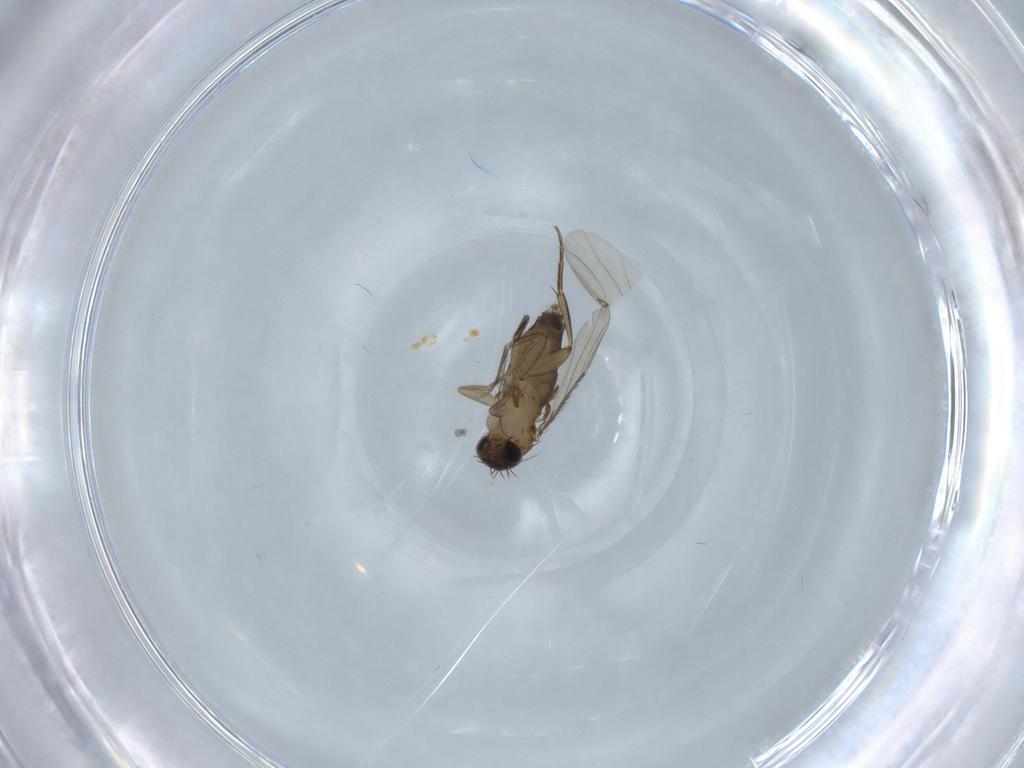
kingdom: Animalia
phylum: Arthropoda
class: Insecta
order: Diptera
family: Phoridae
